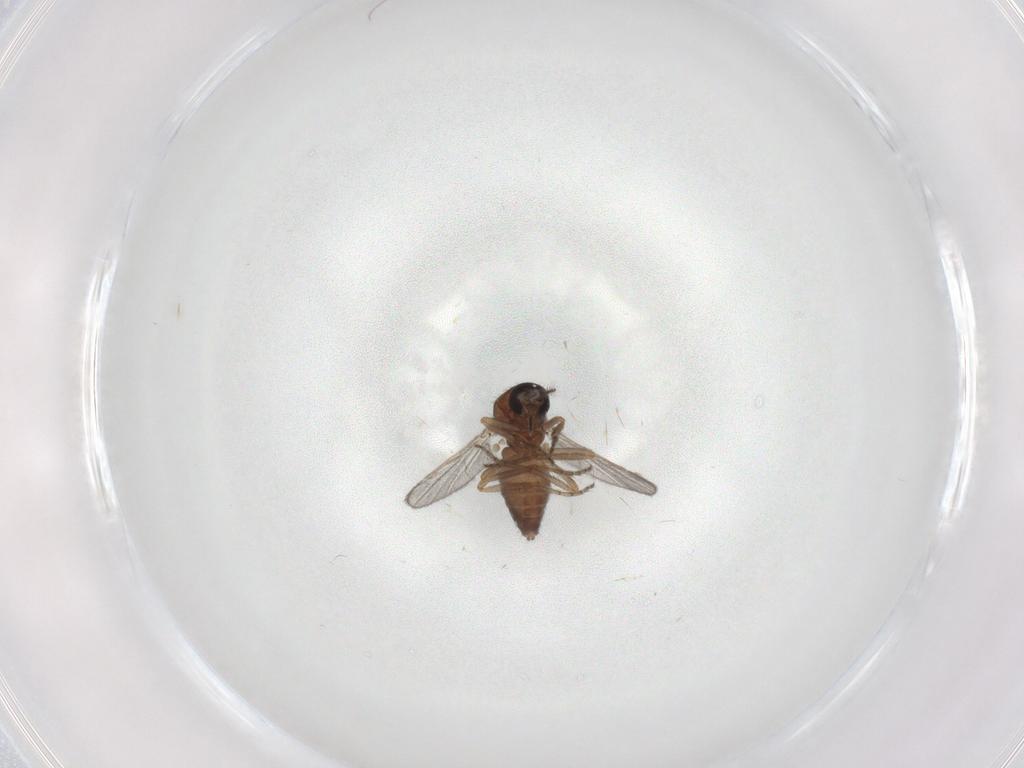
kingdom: Animalia
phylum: Arthropoda
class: Insecta
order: Diptera
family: Ceratopogonidae
